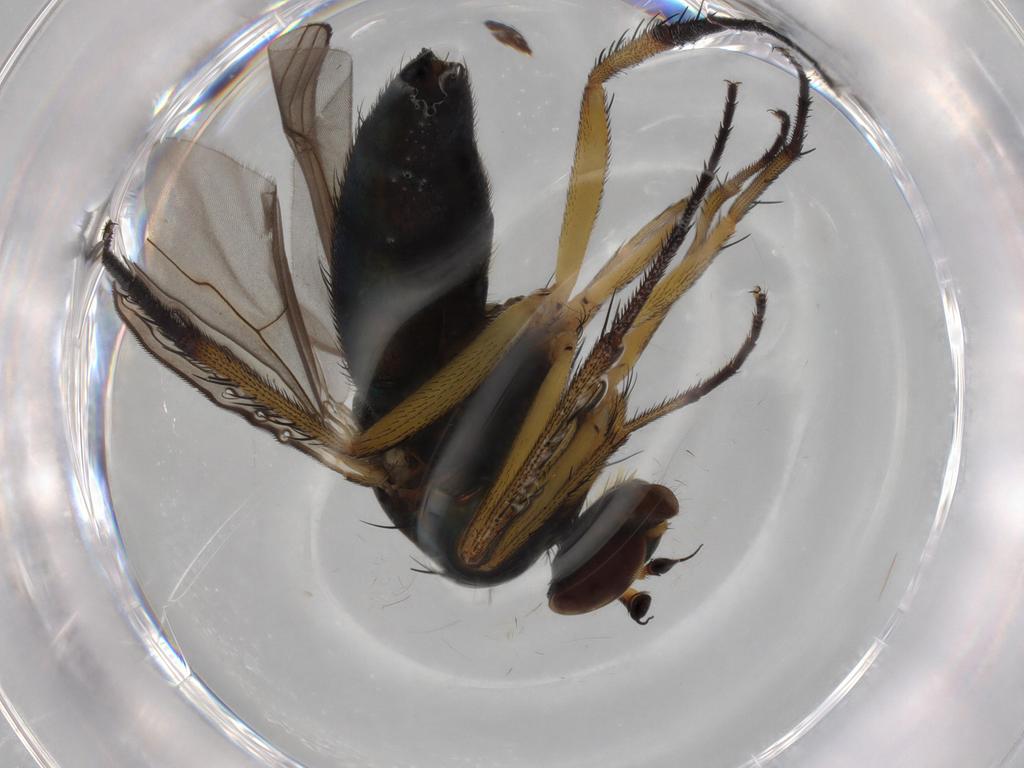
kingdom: Animalia
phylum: Arthropoda
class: Insecta
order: Diptera
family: Dolichopodidae
